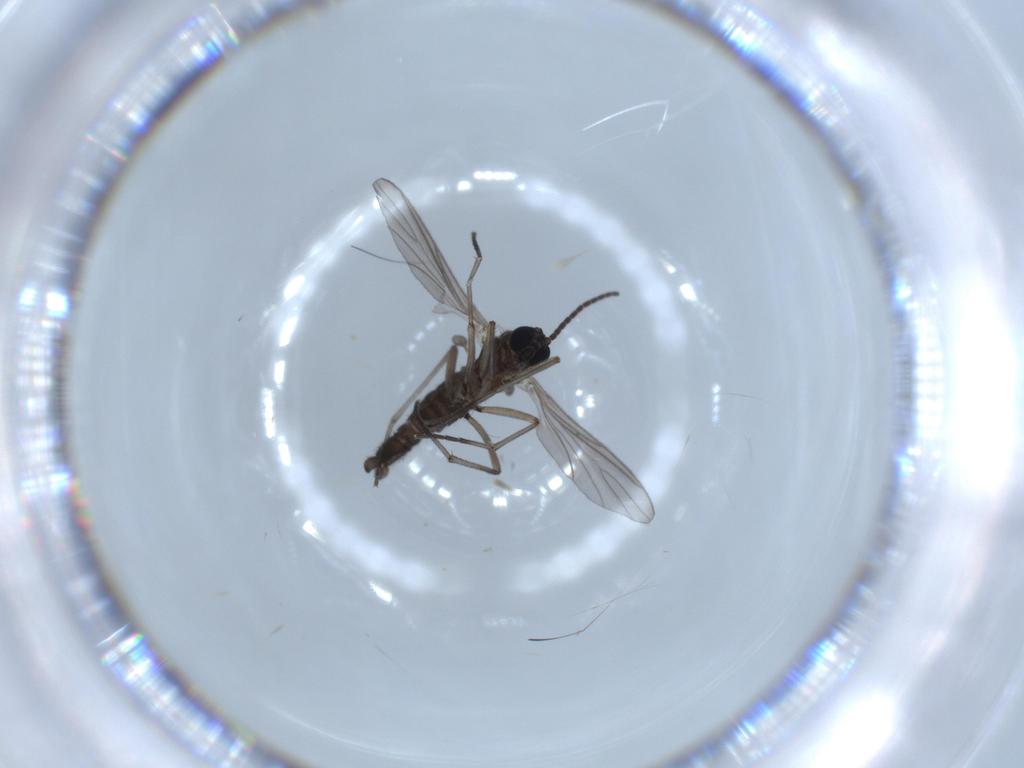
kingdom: Animalia
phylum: Arthropoda
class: Insecta
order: Diptera
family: Sciaridae
